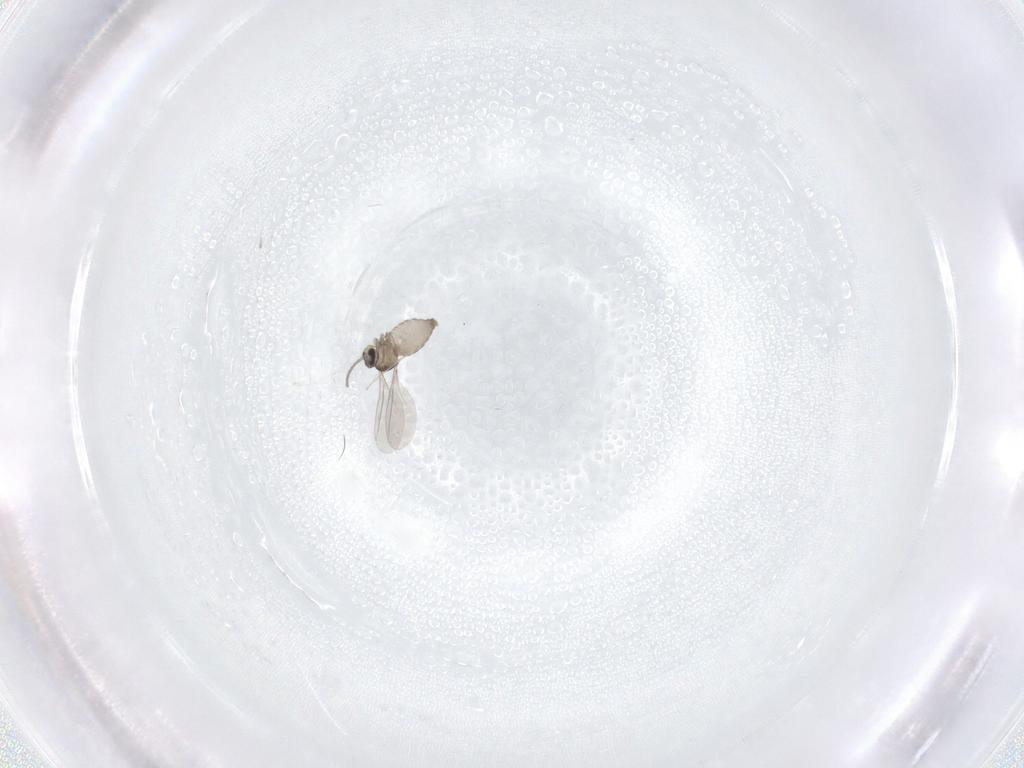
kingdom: Animalia
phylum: Arthropoda
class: Insecta
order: Diptera
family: Cecidomyiidae
